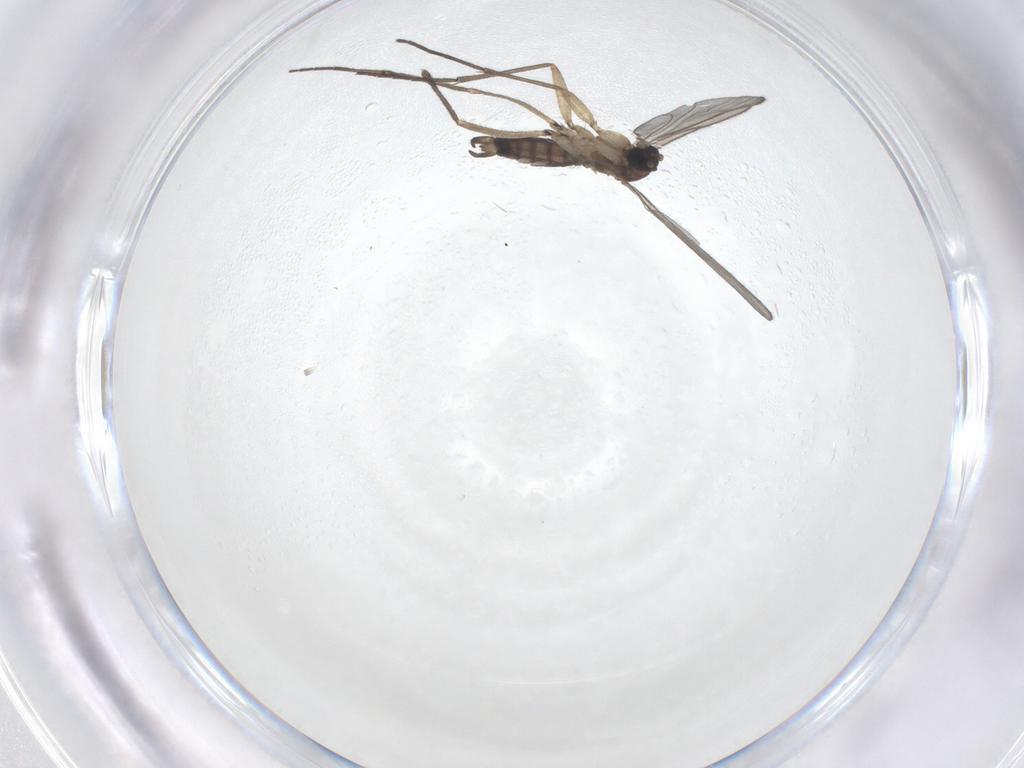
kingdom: Animalia
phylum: Arthropoda
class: Insecta
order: Diptera
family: Sciaridae
